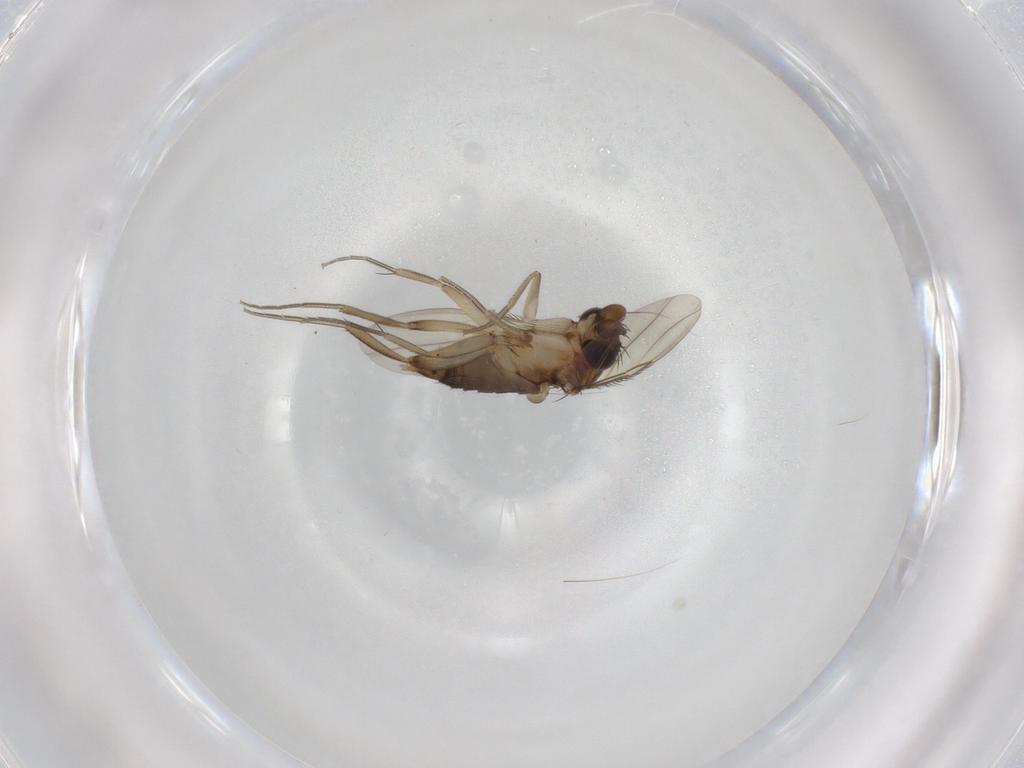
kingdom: Animalia
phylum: Arthropoda
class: Insecta
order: Diptera
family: Phoridae
